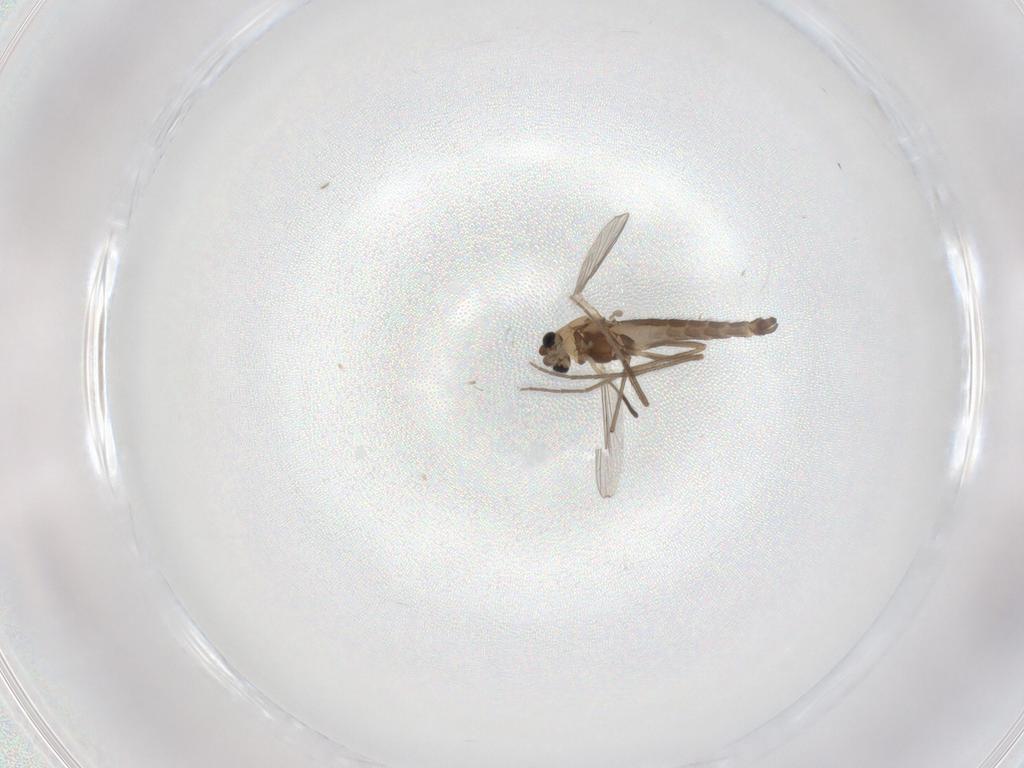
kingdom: Animalia
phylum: Arthropoda
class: Insecta
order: Diptera
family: Chironomidae
